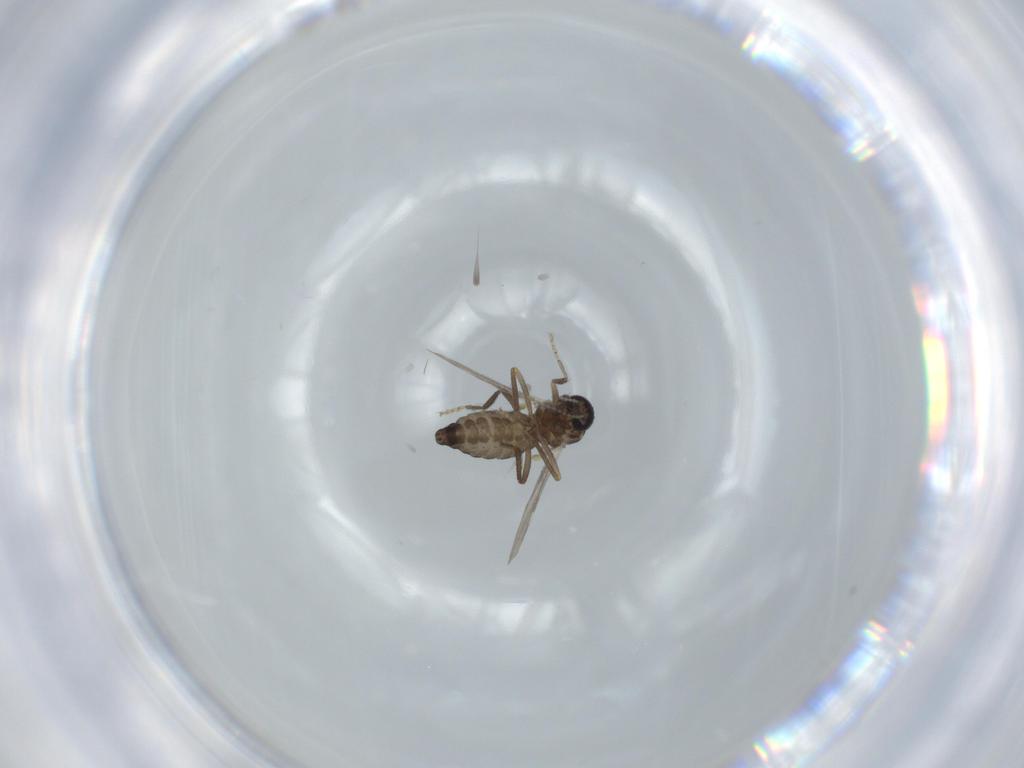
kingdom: Animalia
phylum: Arthropoda
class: Insecta
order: Diptera
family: Ceratopogonidae
